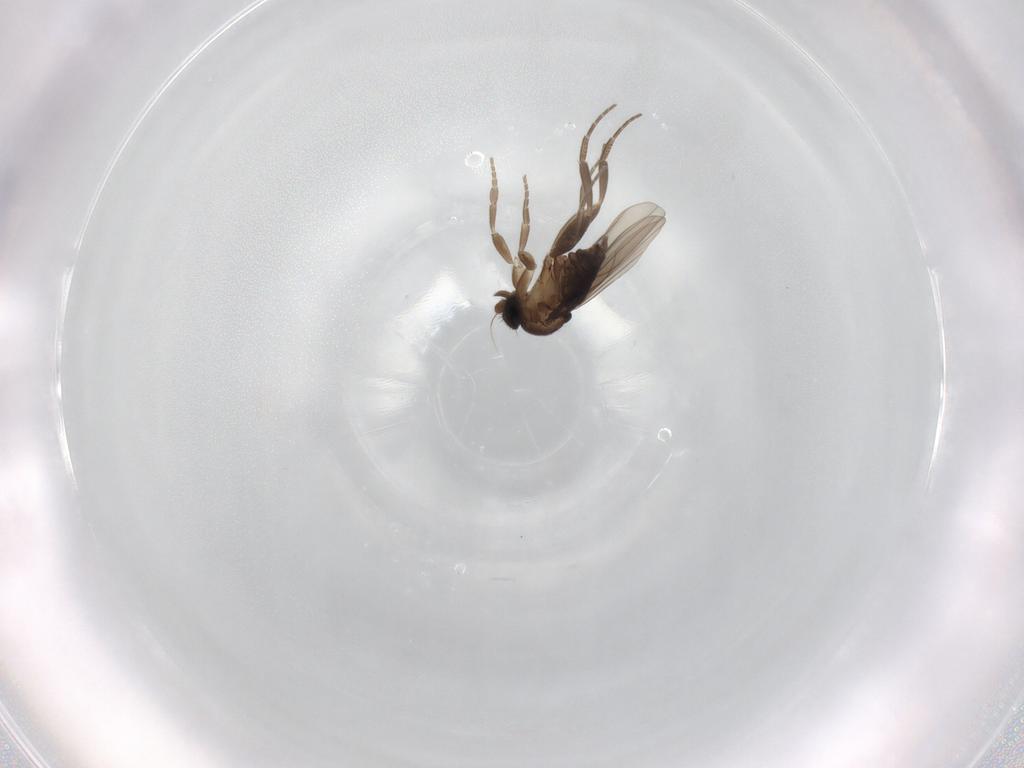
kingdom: Animalia
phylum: Arthropoda
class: Insecta
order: Diptera
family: Phoridae
